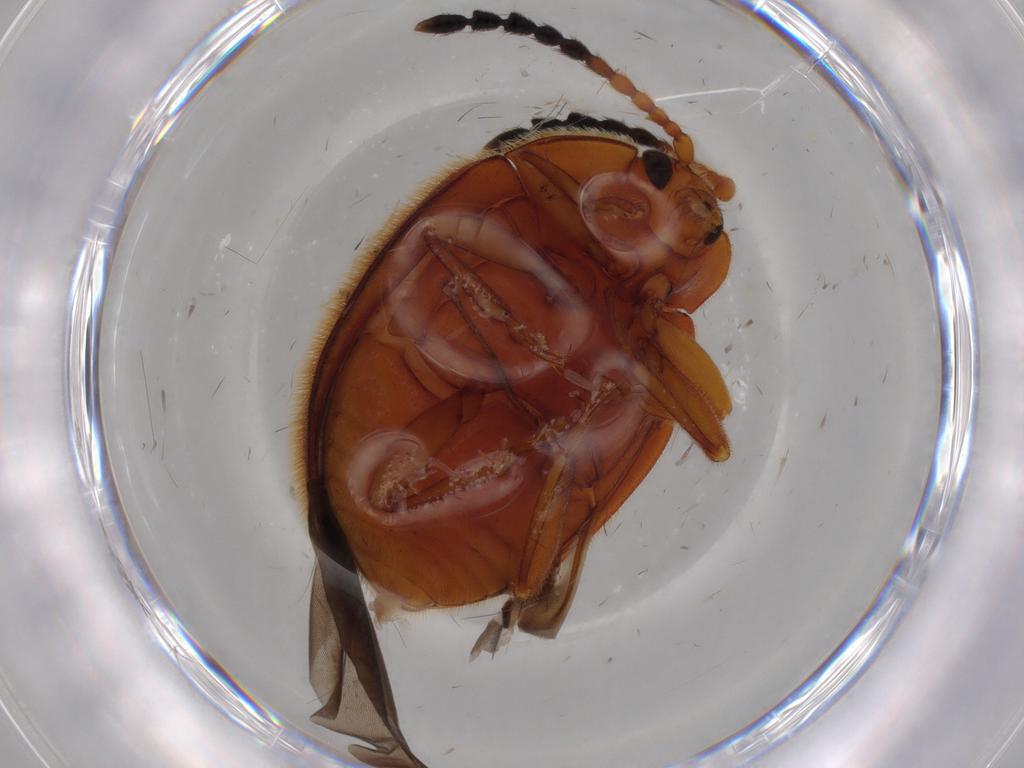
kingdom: Animalia
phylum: Arthropoda
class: Insecta
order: Coleoptera
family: Endomychidae
